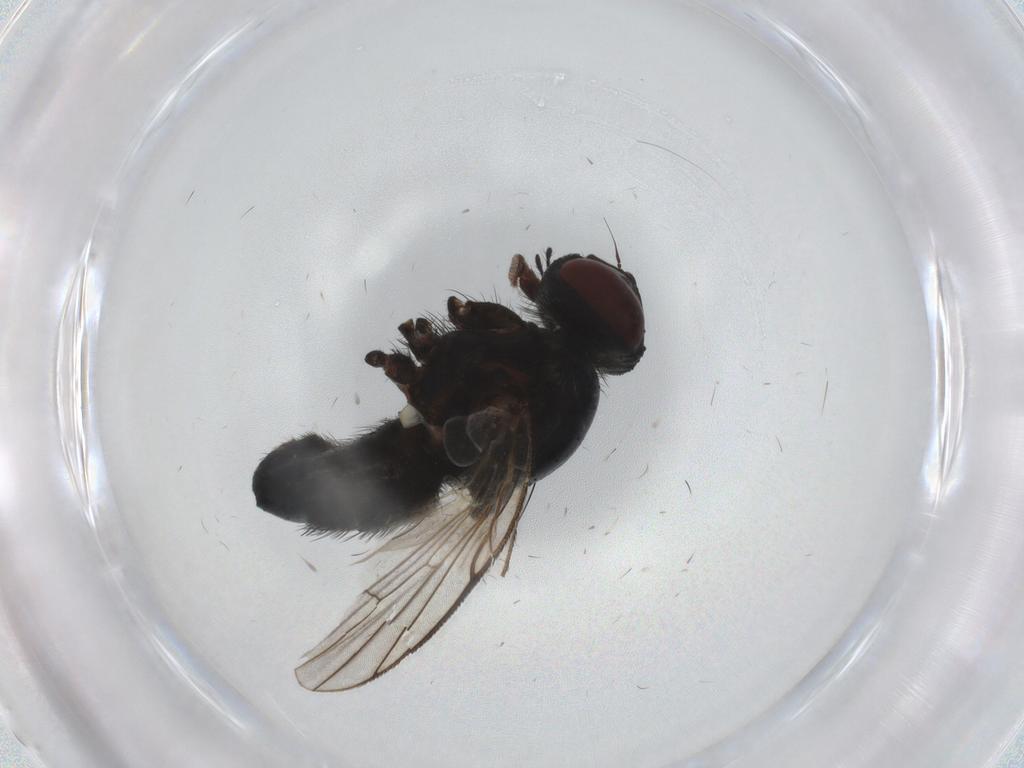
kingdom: Animalia
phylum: Arthropoda
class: Insecta
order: Diptera
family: Muscidae
